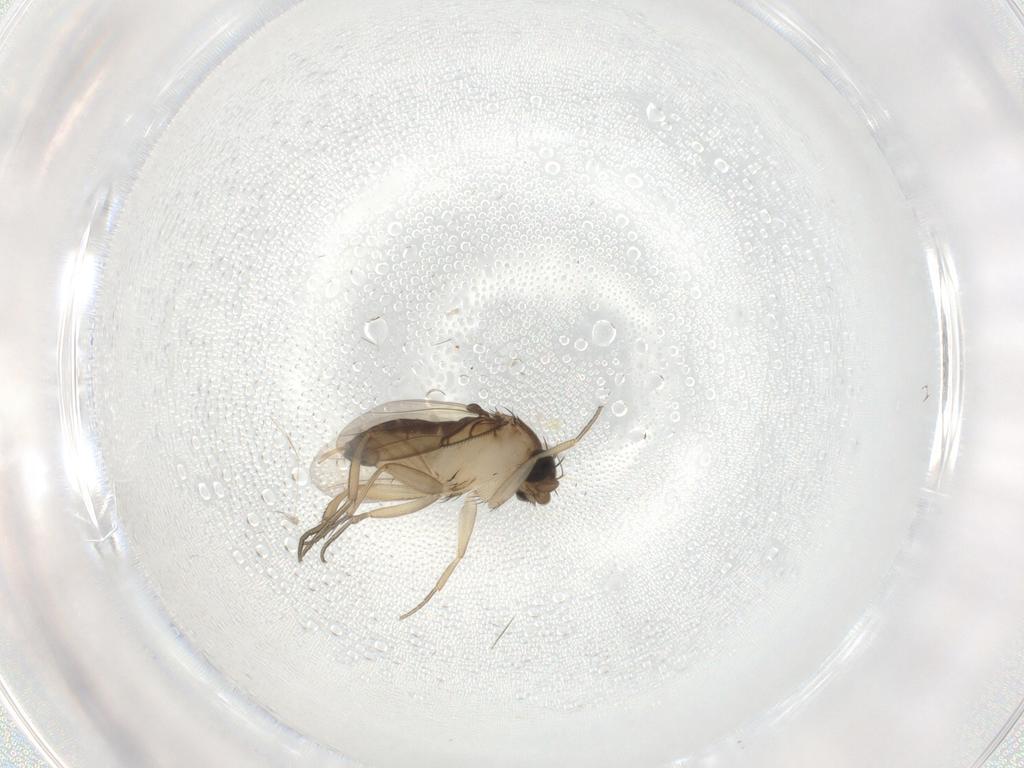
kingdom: Animalia
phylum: Arthropoda
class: Insecta
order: Diptera
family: Phoridae
